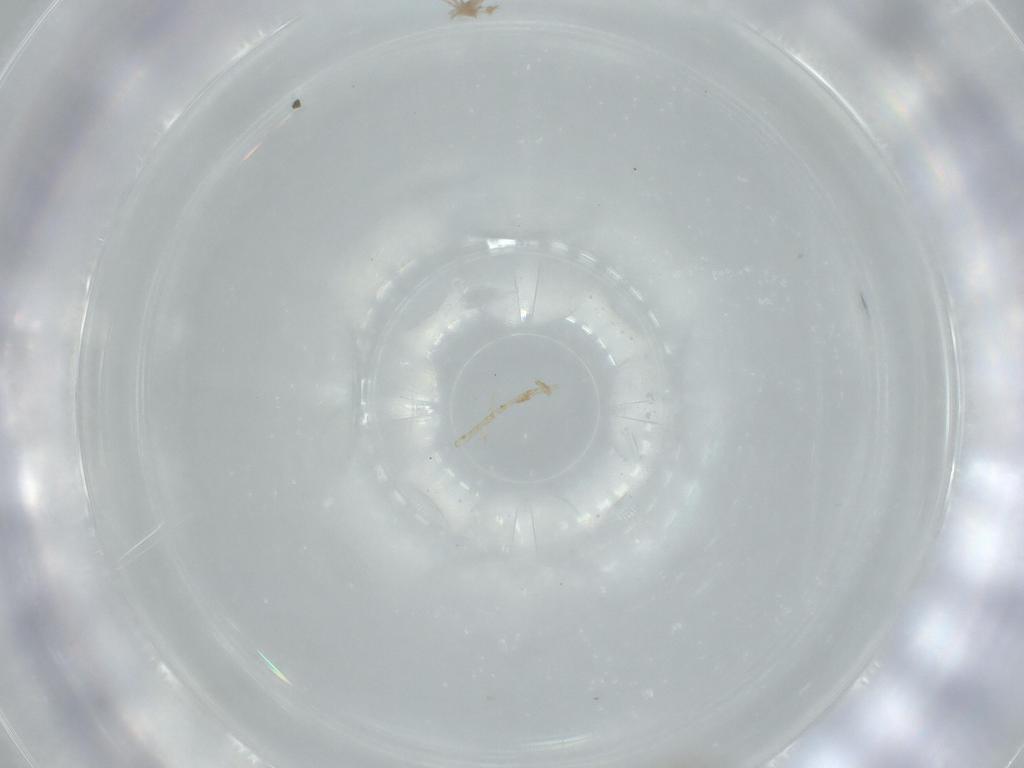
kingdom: Animalia
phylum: Arthropoda
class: Insecta
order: Diptera
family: Cecidomyiidae
